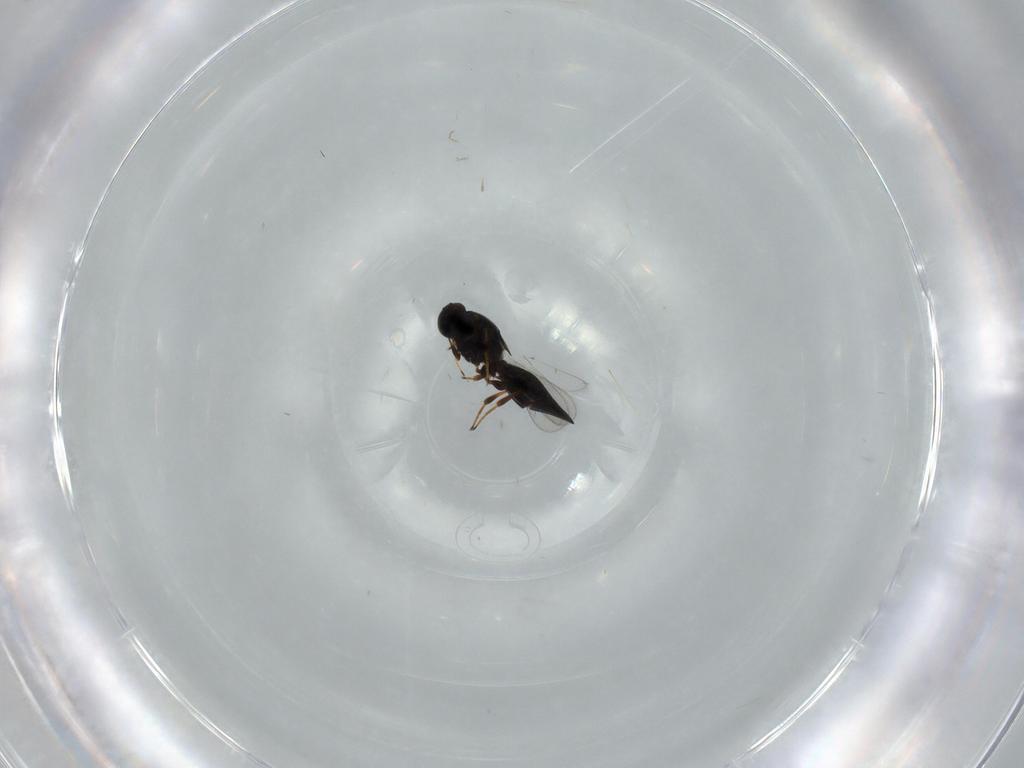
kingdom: Animalia
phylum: Arthropoda
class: Insecta
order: Hymenoptera
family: Platygastridae
